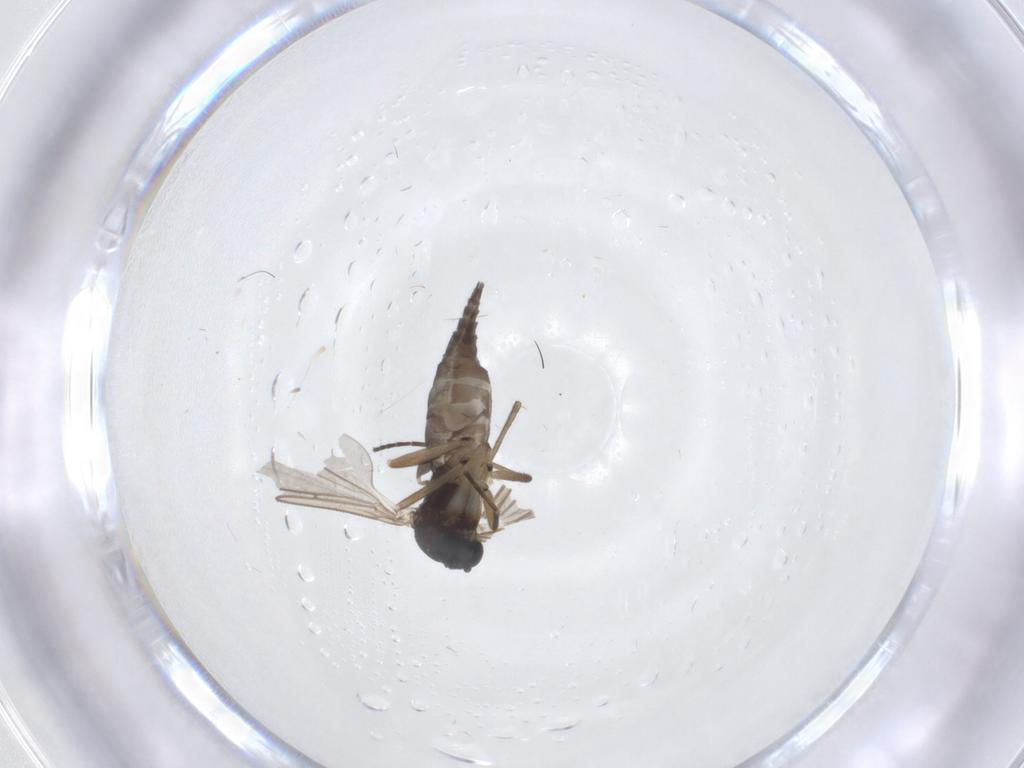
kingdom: Animalia
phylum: Arthropoda
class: Insecta
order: Diptera
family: Sciaridae
